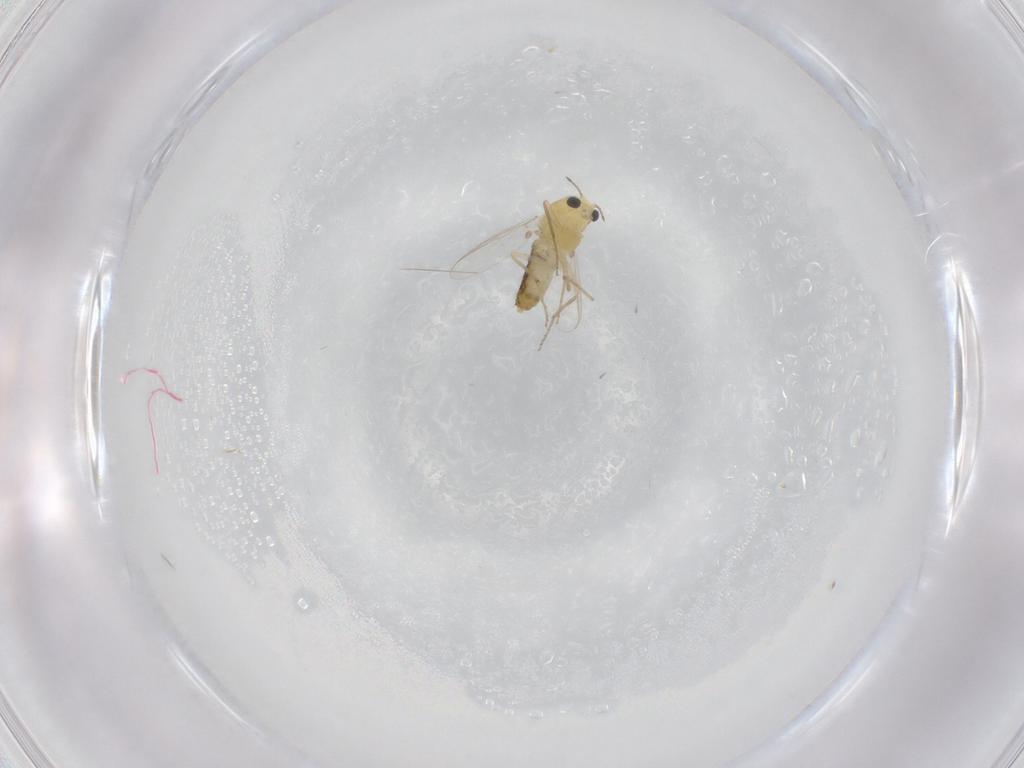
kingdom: Animalia
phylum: Arthropoda
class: Insecta
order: Diptera
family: Chironomidae
